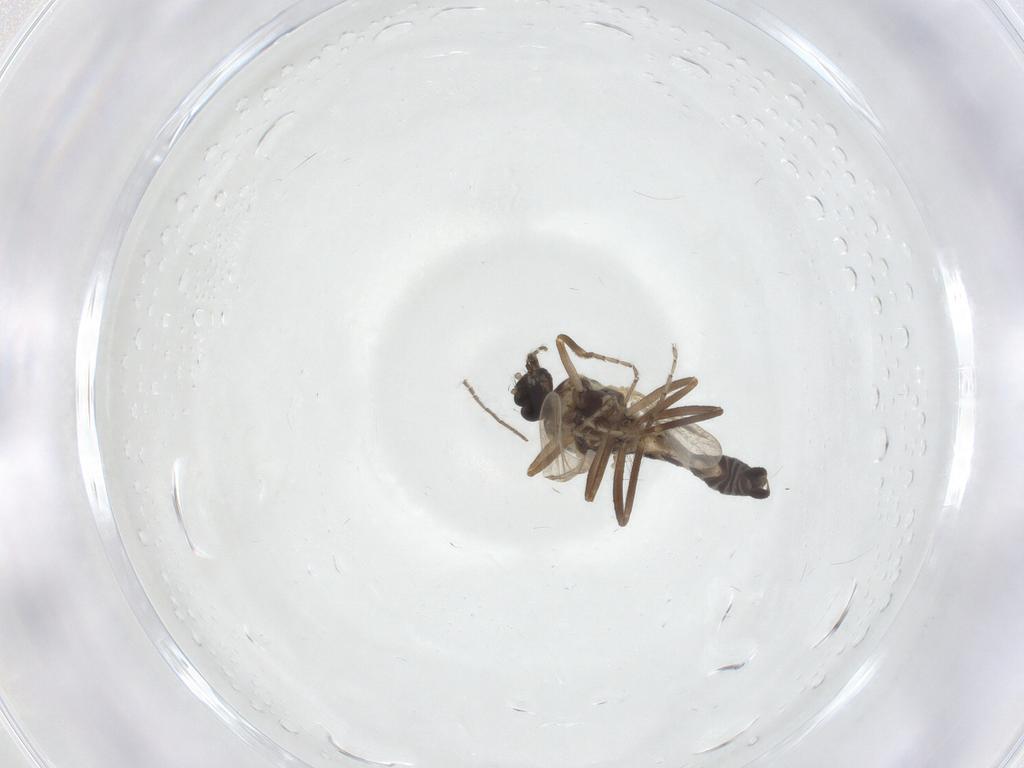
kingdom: Animalia
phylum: Arthropoda
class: Insecta
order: Diptera
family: Ceratopogonidae
